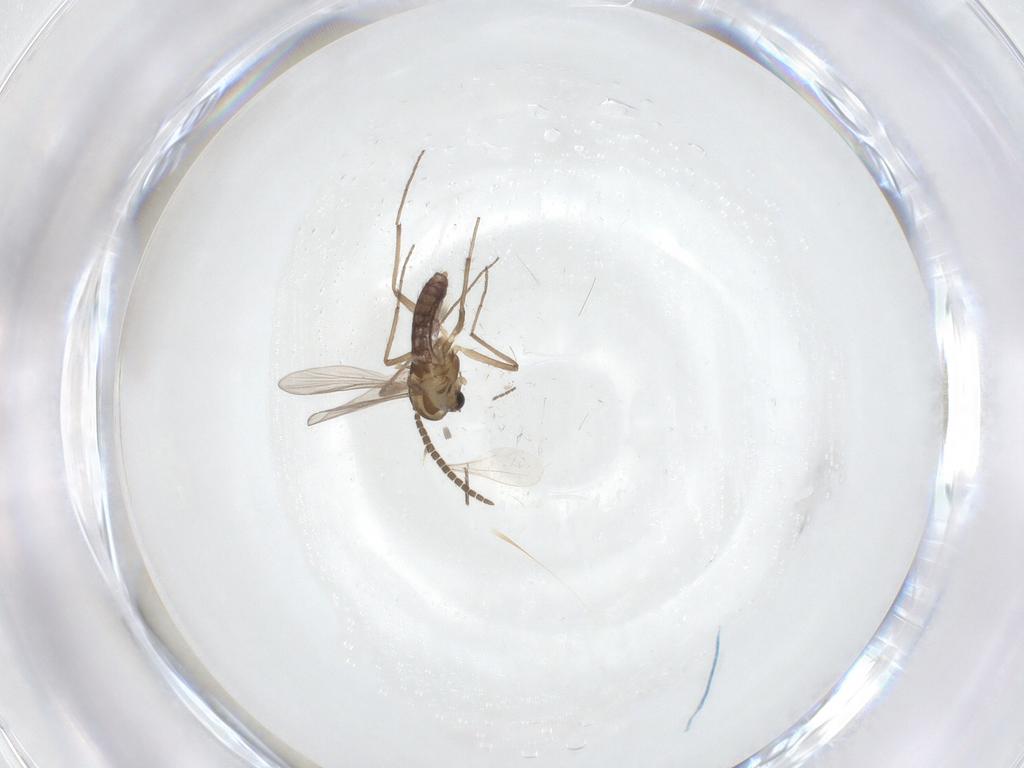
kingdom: Animalia
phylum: Arthropoda
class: Insecta
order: Diptera
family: Chironomidae
